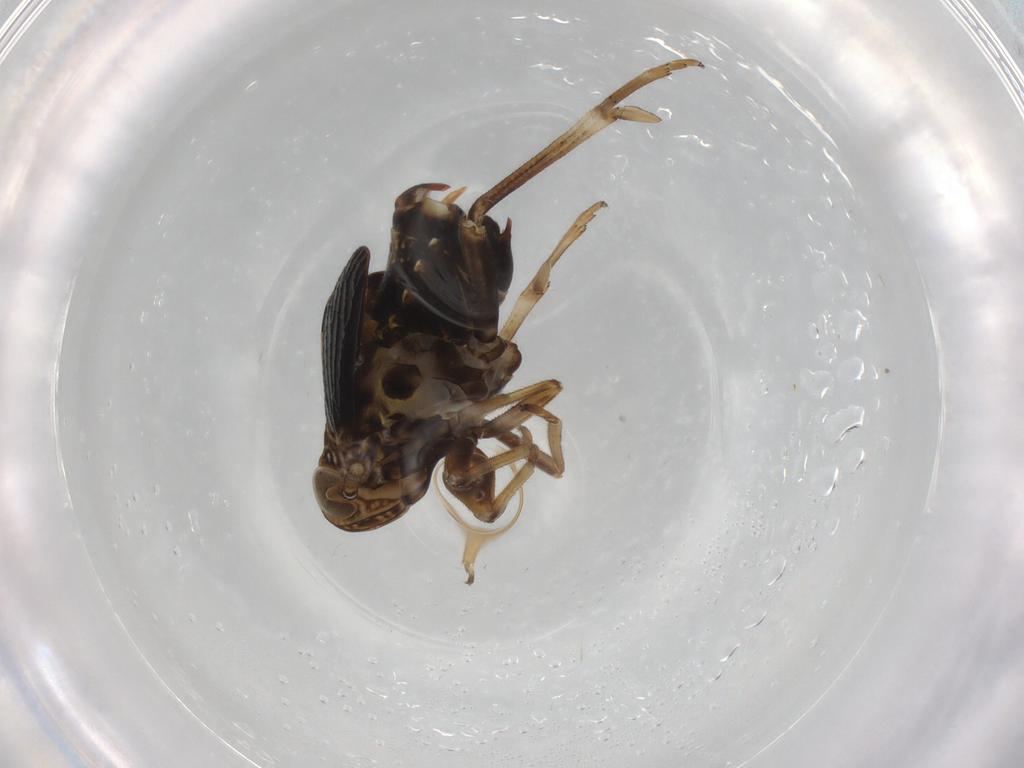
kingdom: Animalia
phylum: Arthropoda
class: Insecta
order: Hemiptera
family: Delphacidae
